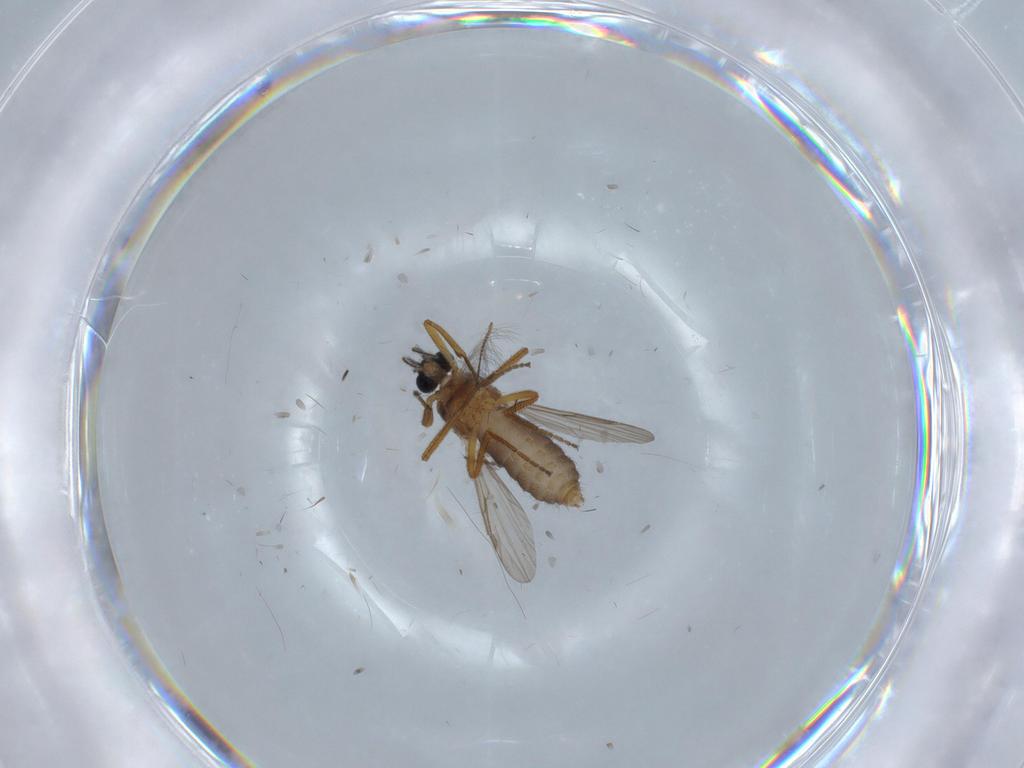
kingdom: Animalia
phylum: Arthropoda
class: Insecta
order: Diptera
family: Ceratopogonidae
